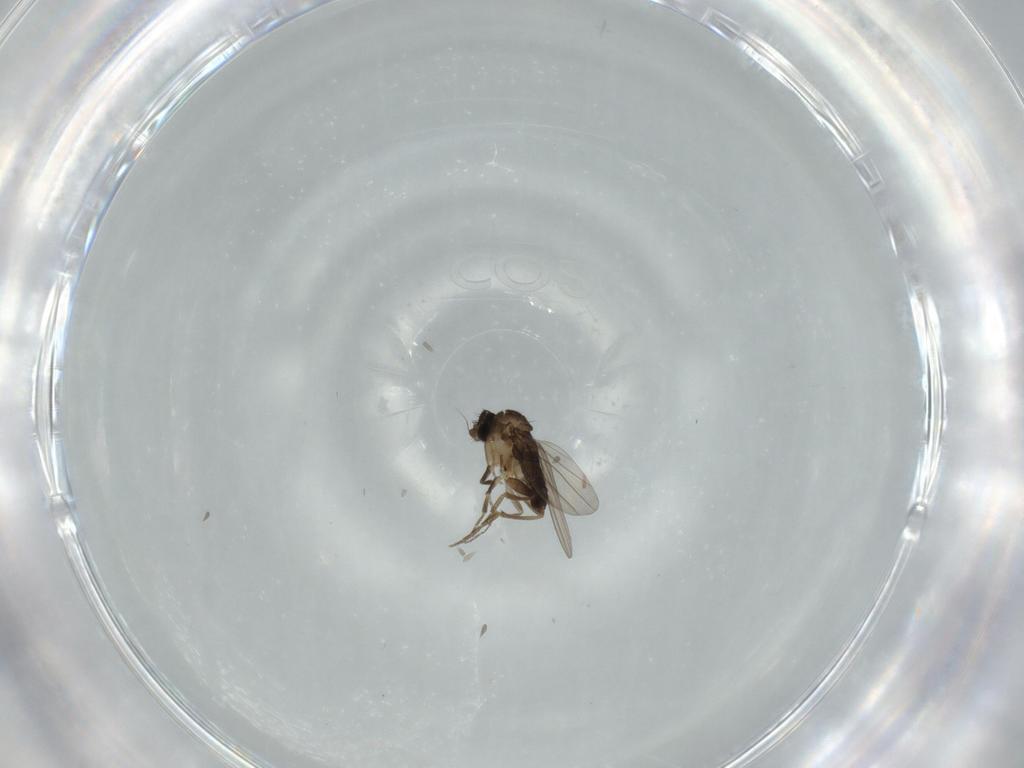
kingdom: Animalia
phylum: Arthropoda
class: Insecta
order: Diptera
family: Phoridae
